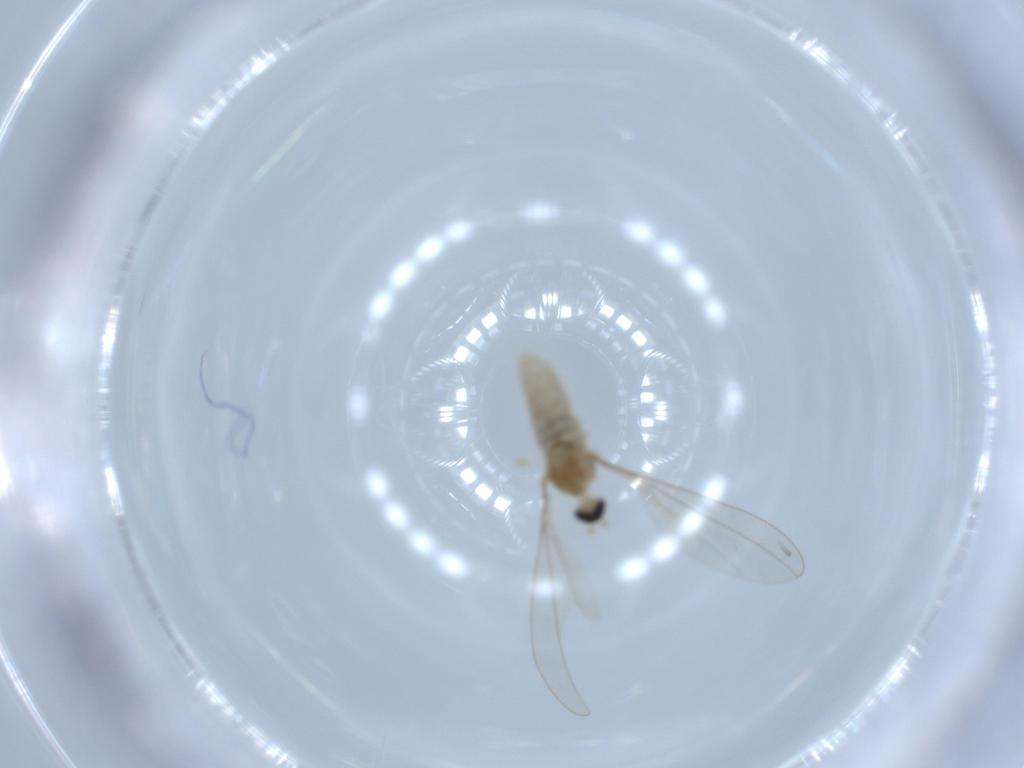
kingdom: Animalia
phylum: Arthropoda
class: Insecta
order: Diptera
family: Cecidomyiidae
